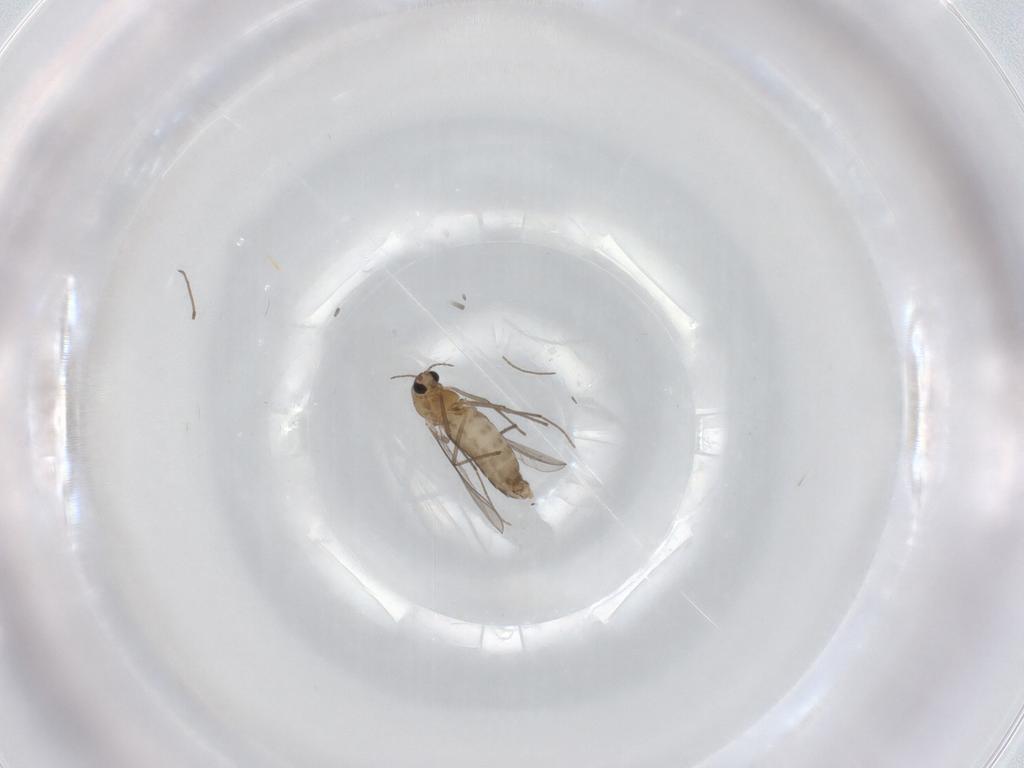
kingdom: Animalia
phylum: Arthropoda
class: Insecta
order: Diptera
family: Chironomidae
